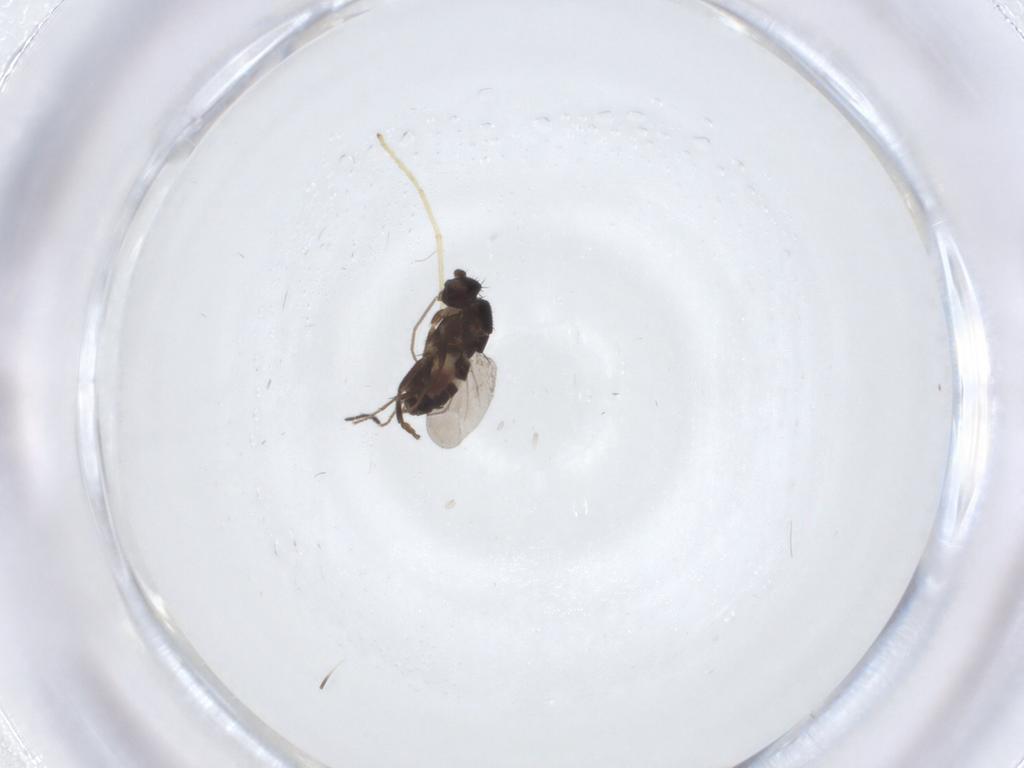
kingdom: Animalia
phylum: Arthropoda
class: Insecta
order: Diptera
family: Sphaeroceridae
